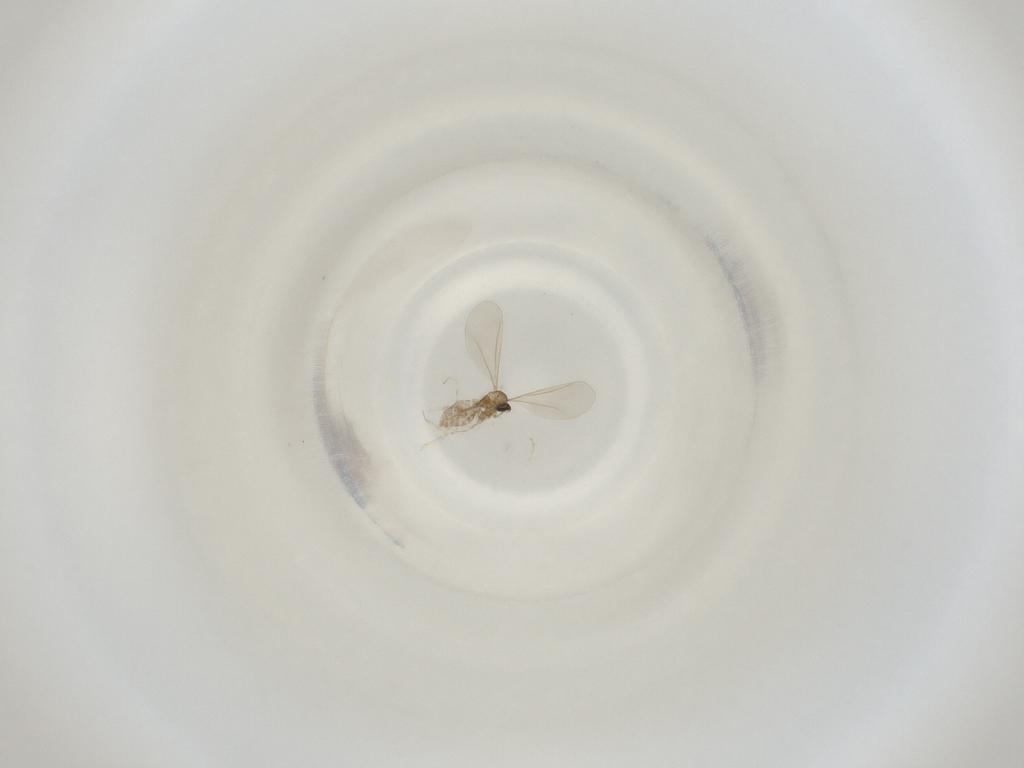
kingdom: Animalia
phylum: Arthropoda
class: Insecta
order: Diptera
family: Cecidomyiidae
